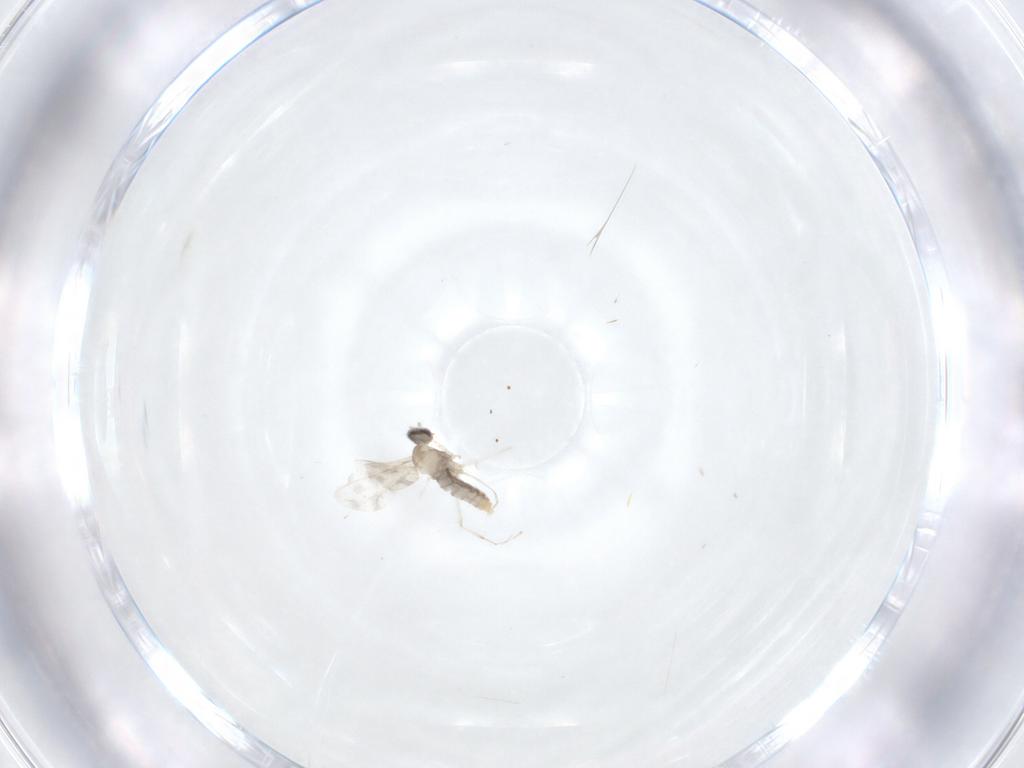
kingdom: Animalia
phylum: Arthropoda
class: Insecta
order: Diptera
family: Cecidomyiidae
